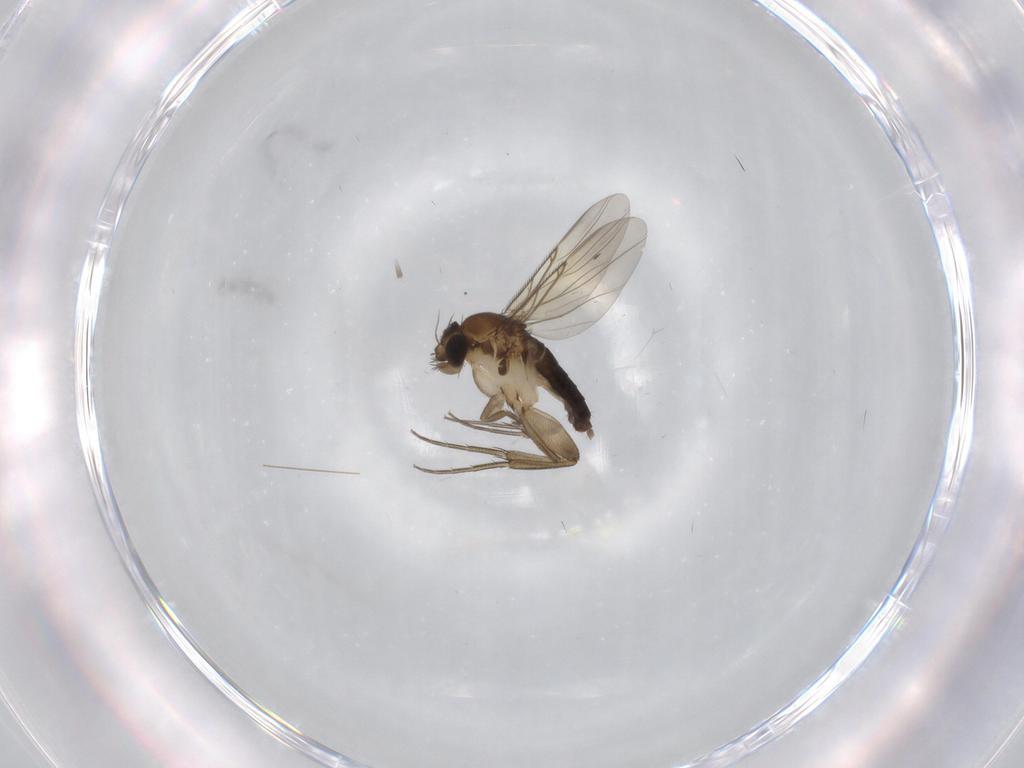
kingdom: Animalia
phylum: Arthropoda
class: Insecta
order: Diptera
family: Phoridae
